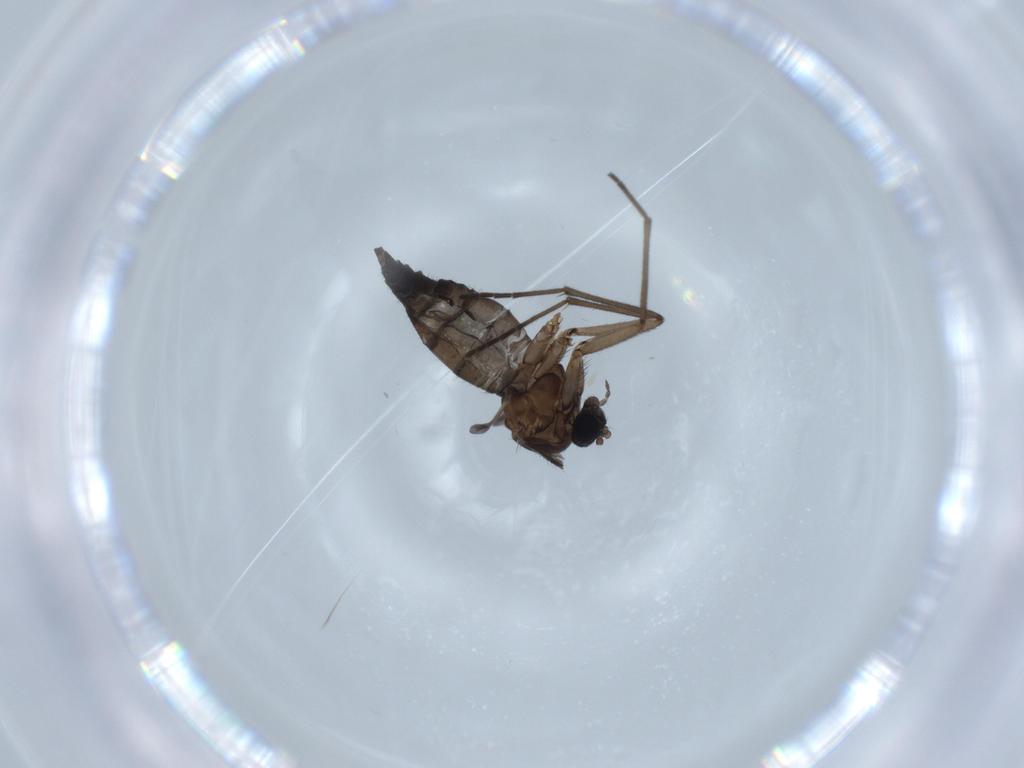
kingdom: Animalia
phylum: Arthropoda
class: Insecta
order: Diptera
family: Sciaridae
